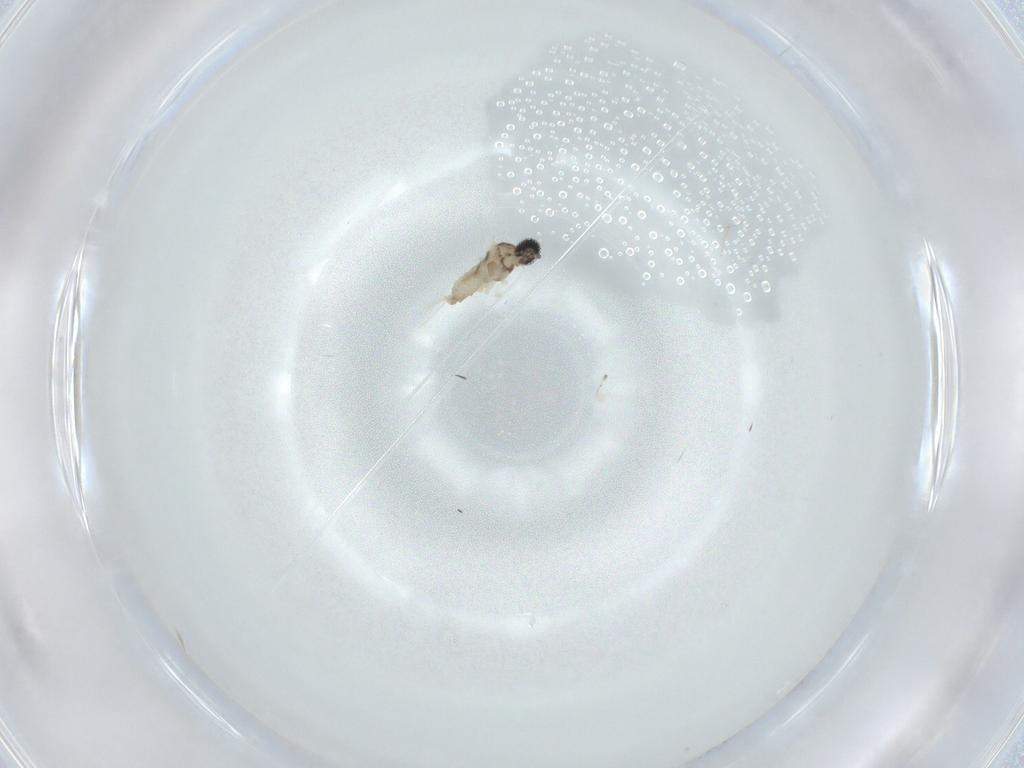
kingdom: Animalia
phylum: Arthropoda
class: Insecta
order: Diptera
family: Cecidomyiidae
